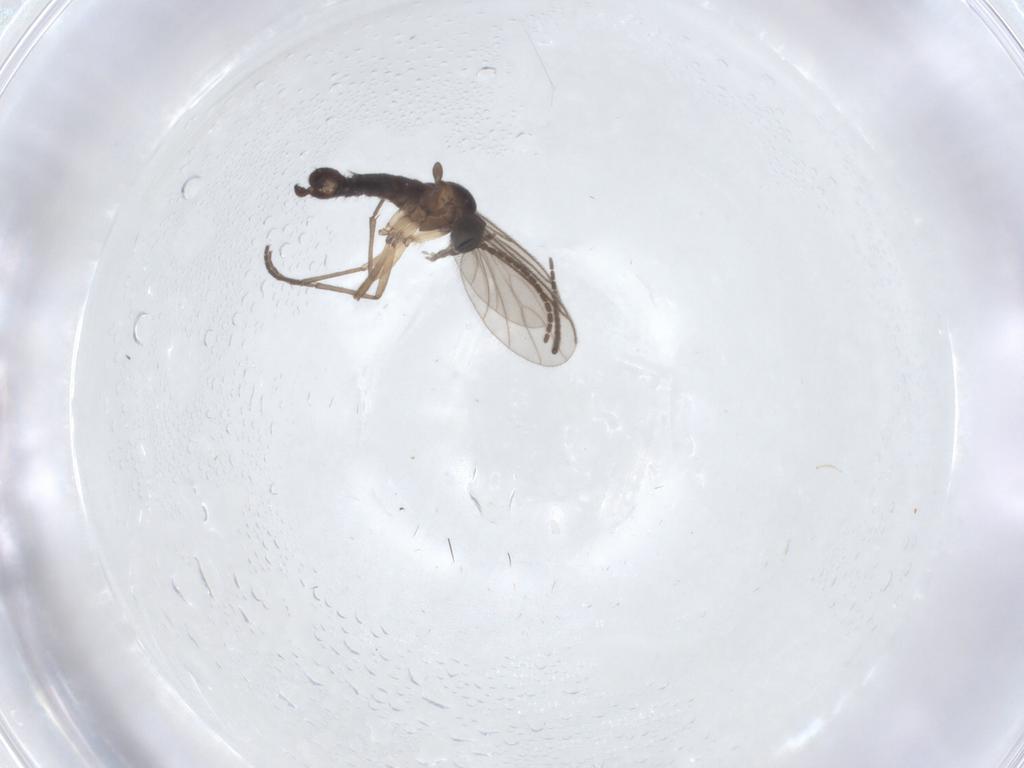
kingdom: Animalia
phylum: Arthropoda
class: Insecta
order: Diptera
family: Sciaridae
